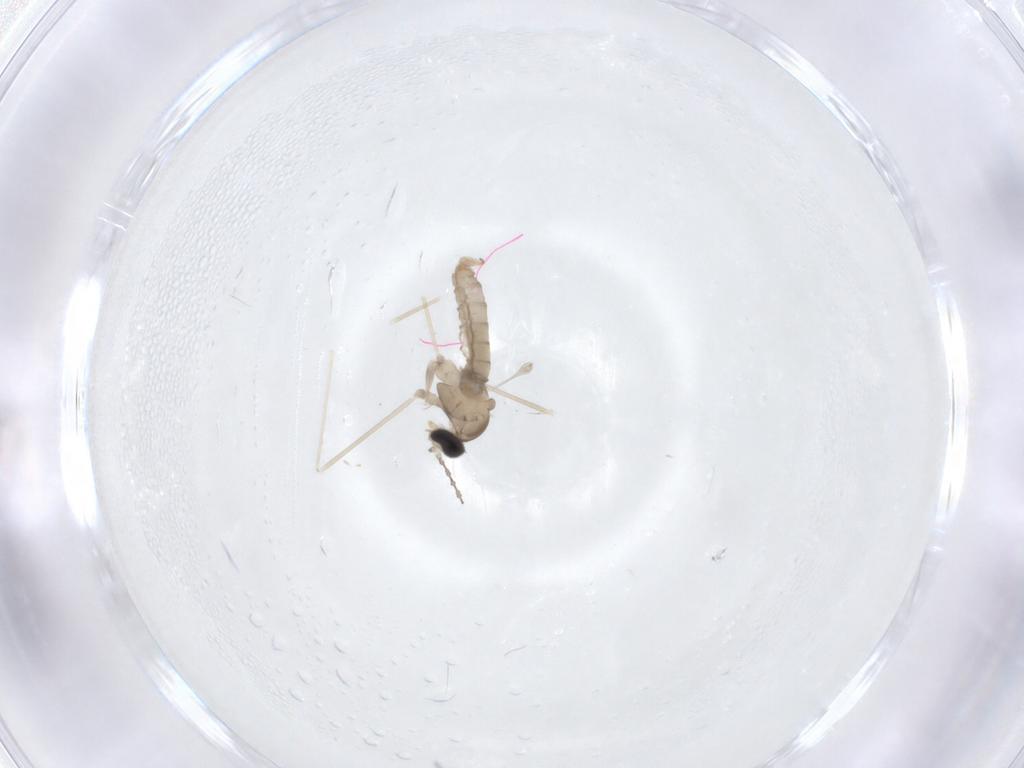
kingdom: Animalia
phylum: Arthropoda
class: Insecta
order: Diptera
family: Cecidomyiidae
